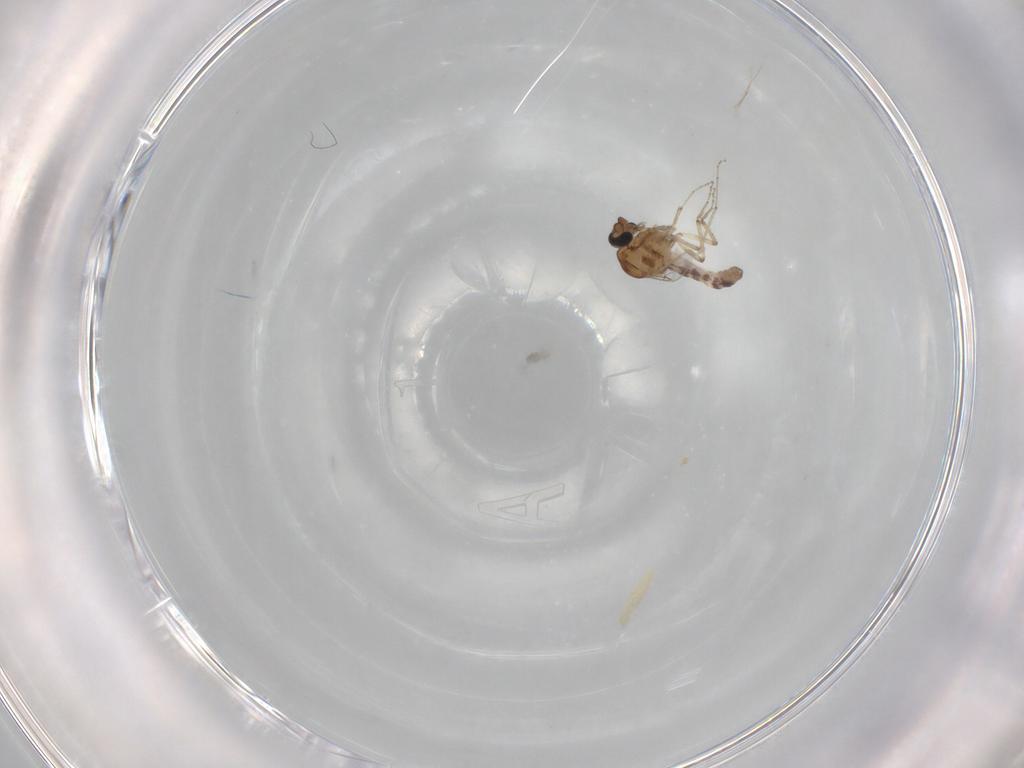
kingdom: Animalia
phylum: Arthropoda
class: Insecta
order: Diptera
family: Ceratopogonidae
